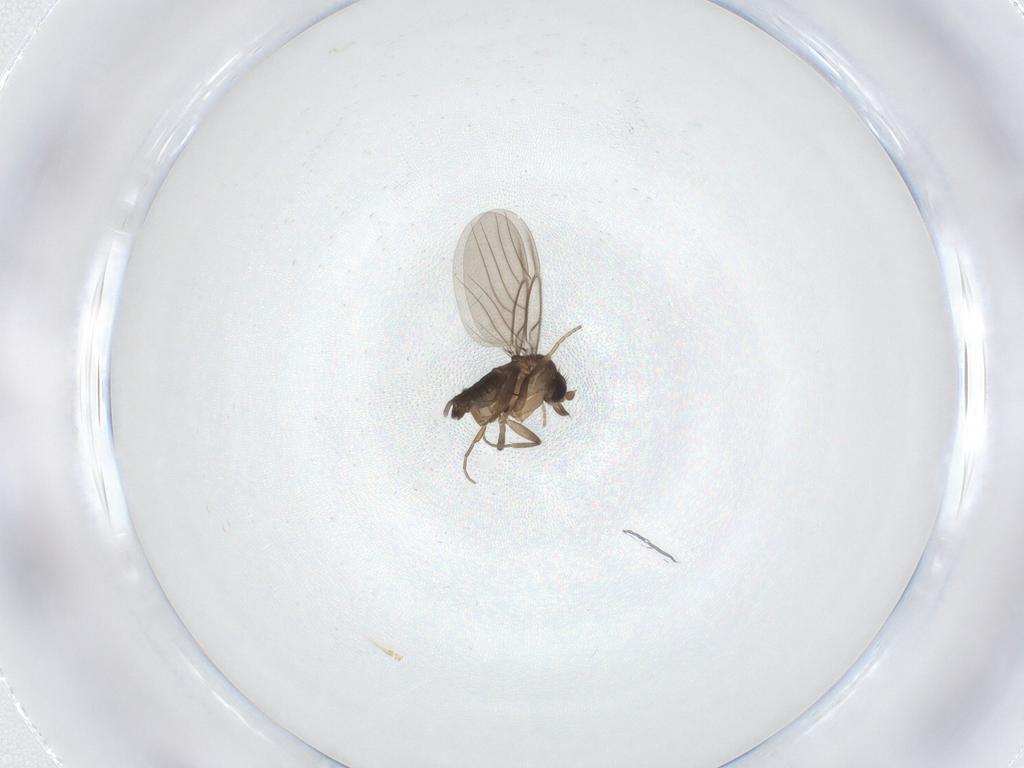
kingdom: Animalia
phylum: Arthropoda
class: Insecta
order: Diptera
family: Phoridae
